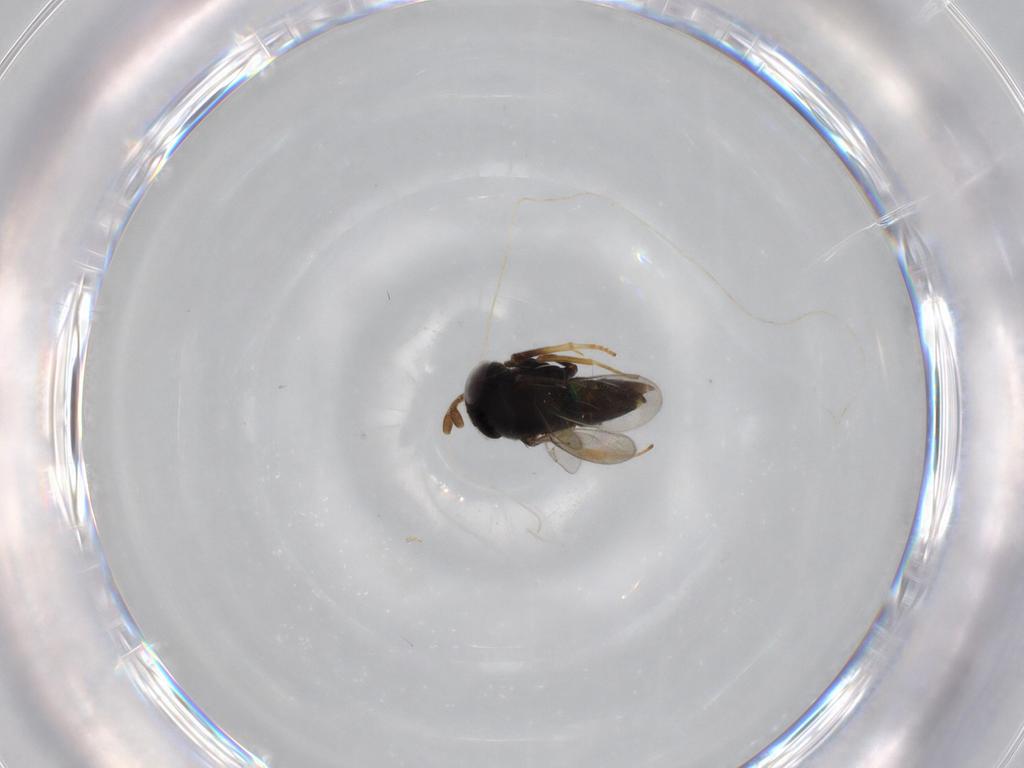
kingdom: Animalia
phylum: Arthropoda
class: Insecta
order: Hymenoptera
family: Encyrtidae
